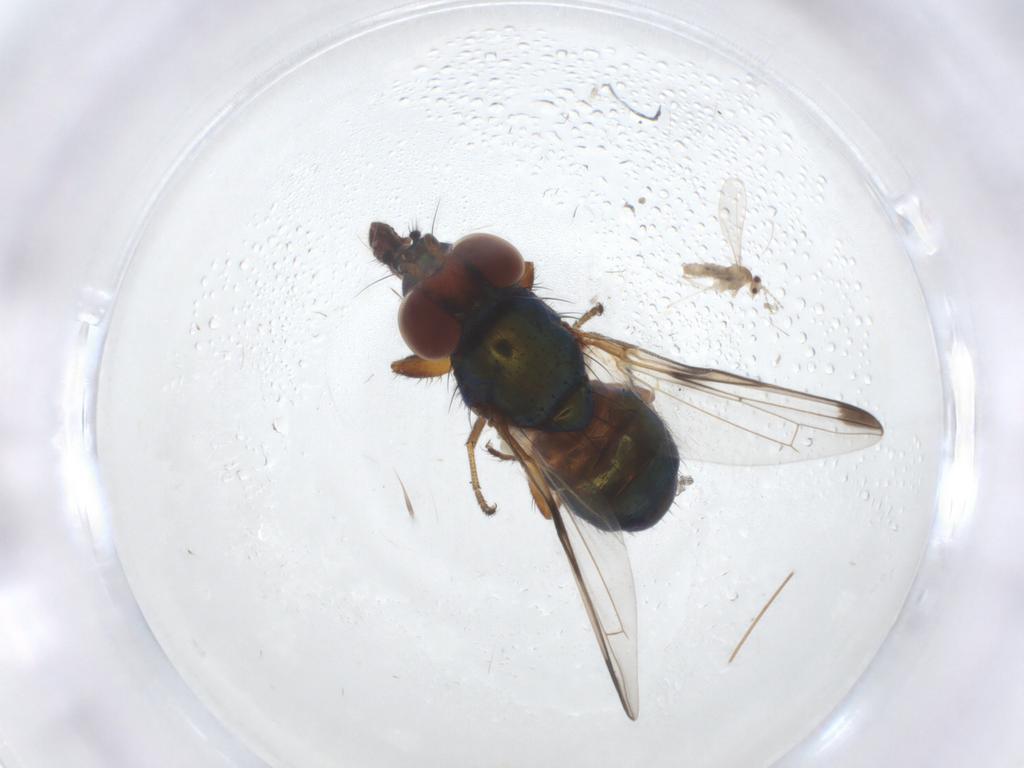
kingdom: Animalia
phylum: Arthropoda
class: Insecta
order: Diptera
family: Ulidiidae
